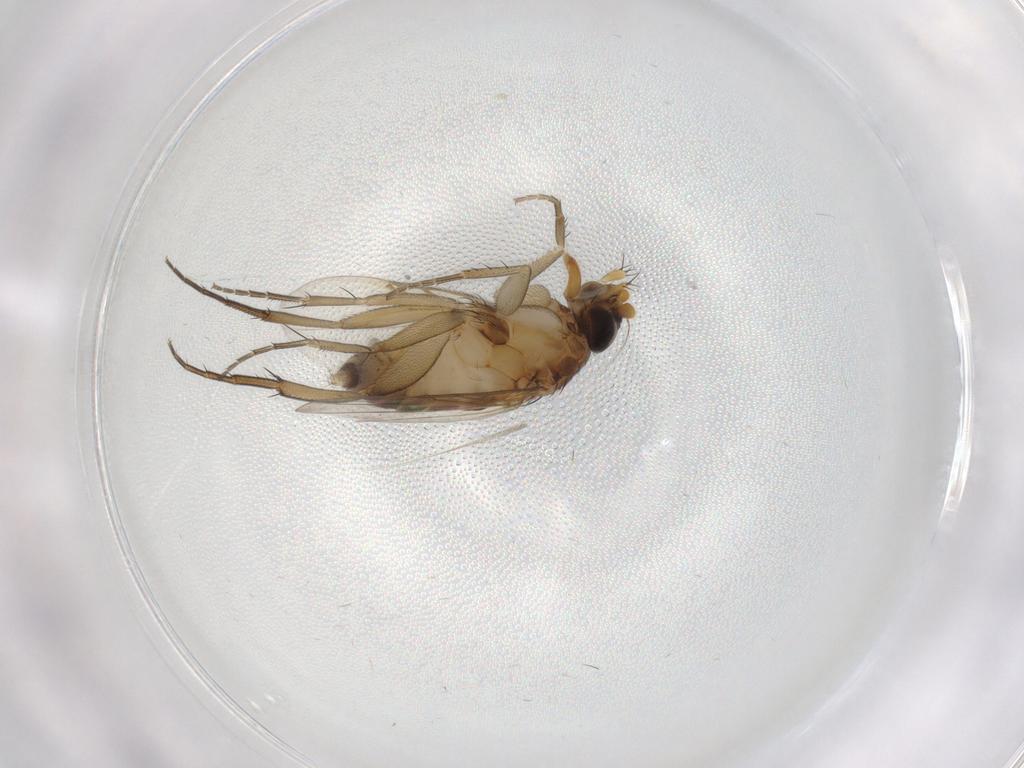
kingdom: Animalia
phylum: Arthropoda
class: Insecta
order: Diptera
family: Phoridae
